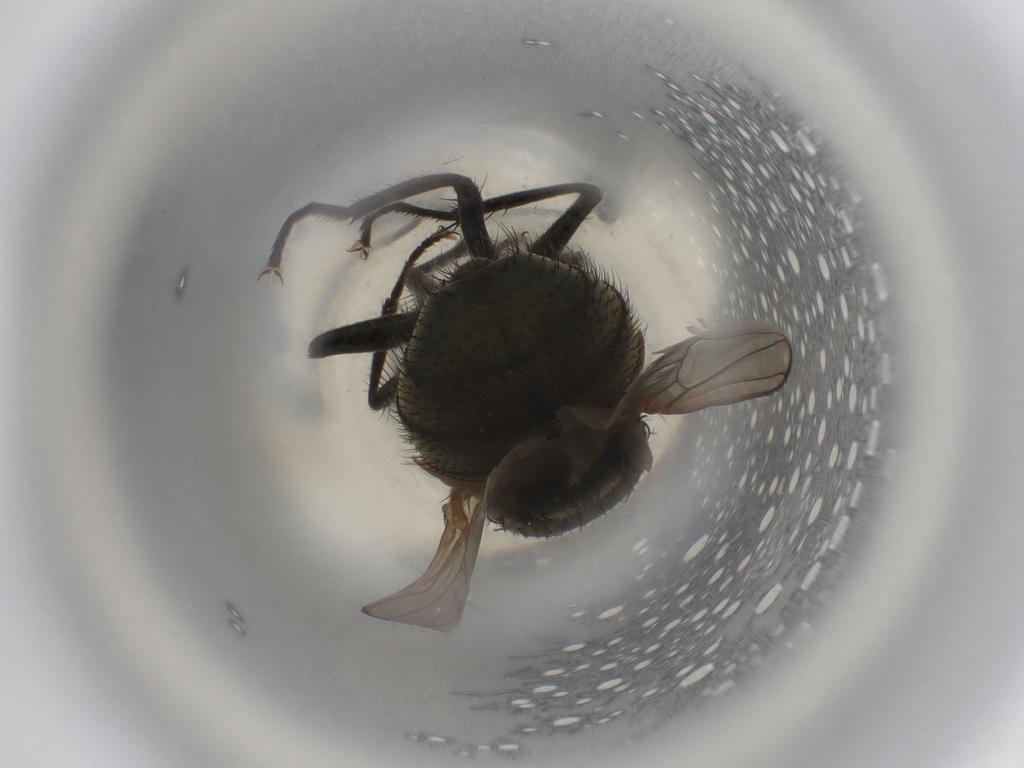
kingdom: Animalia
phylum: Arthropoda
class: Insecta
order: Diptera
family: Muscidae
